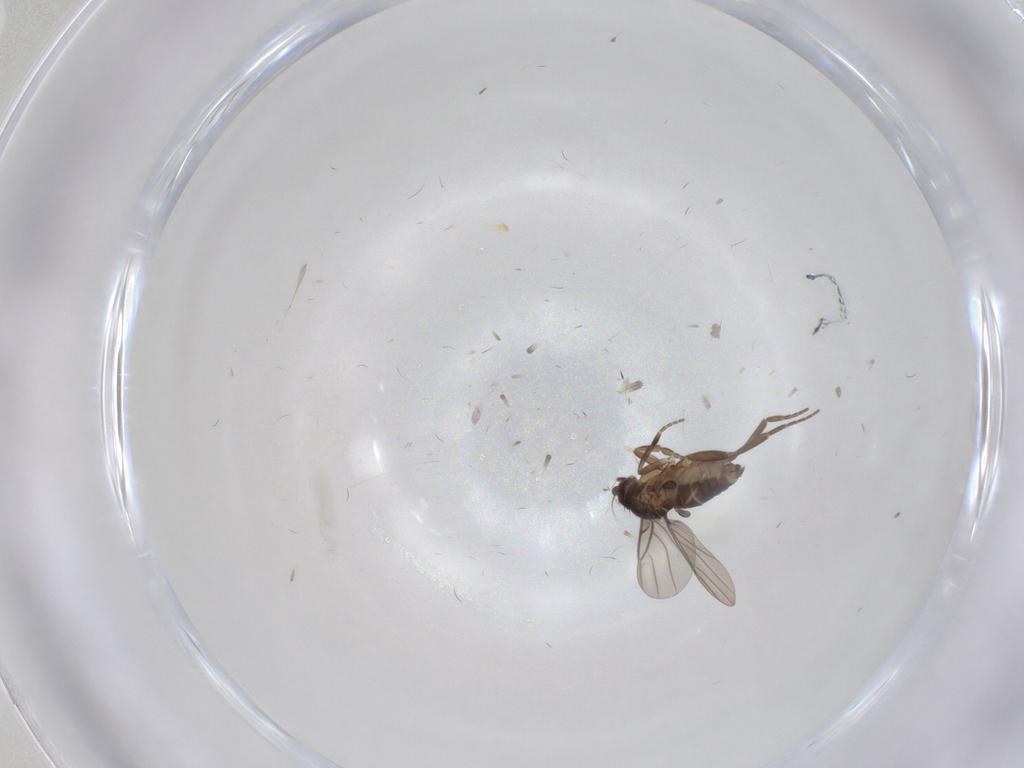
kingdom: Animalia
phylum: Arthropoda
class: Insecta
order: Diptera
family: Phoridae
